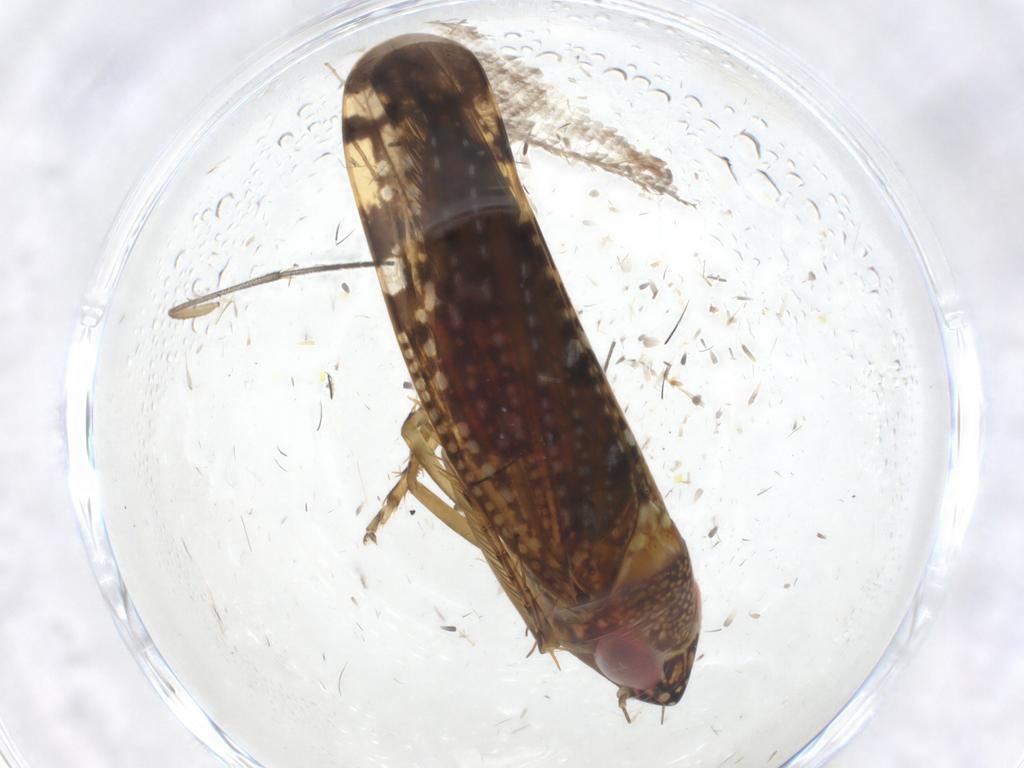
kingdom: Animalia
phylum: Arthropoda
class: Insecta
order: Hemiptera
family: Cicadellidae
